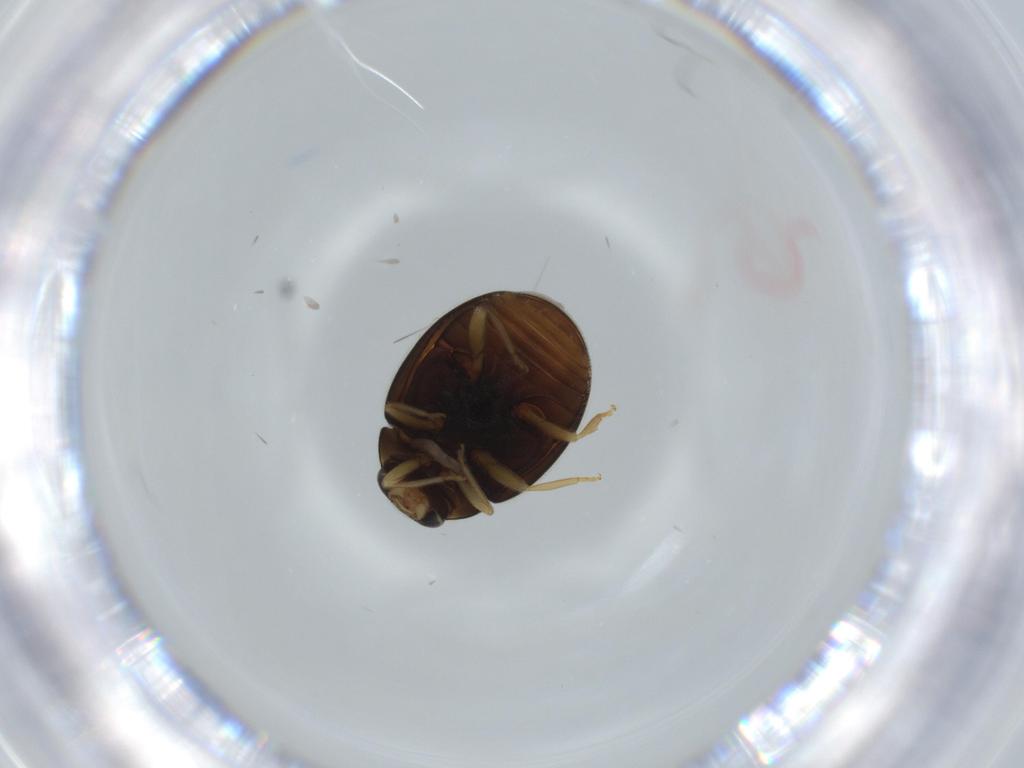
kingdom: Animalia
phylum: Arthropoda
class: Insecta
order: Coleoptera
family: Coccinellidae
